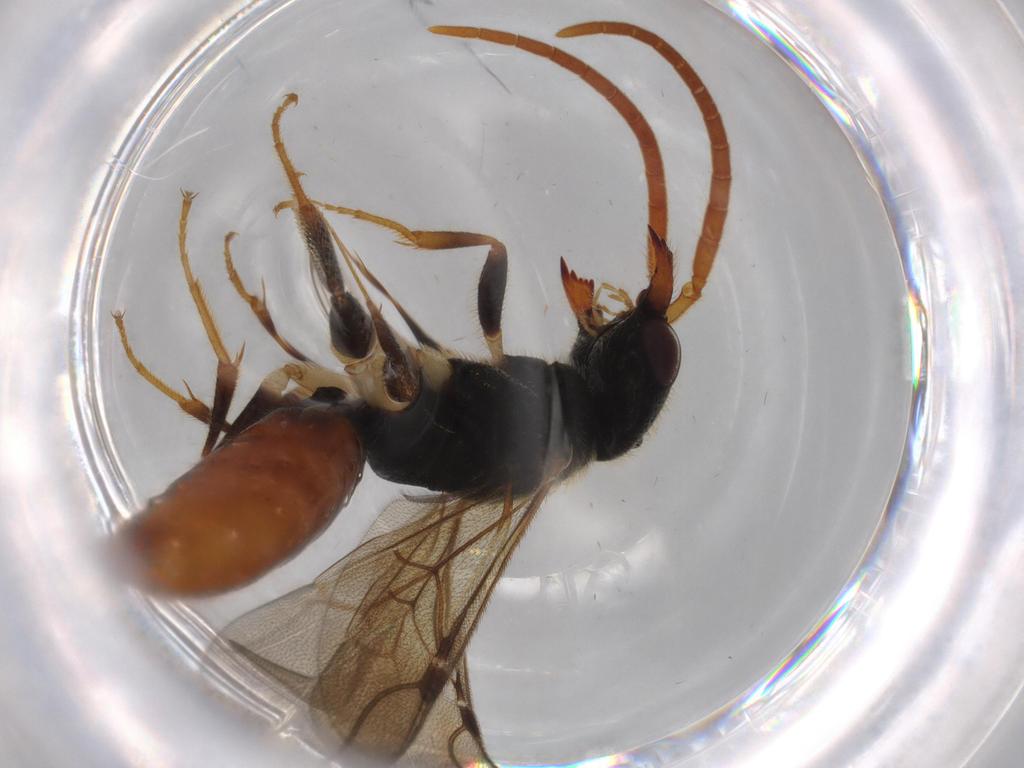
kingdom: Animalia
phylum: Arthropoda
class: Insecta
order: Hymenoptera
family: Bethylidae
